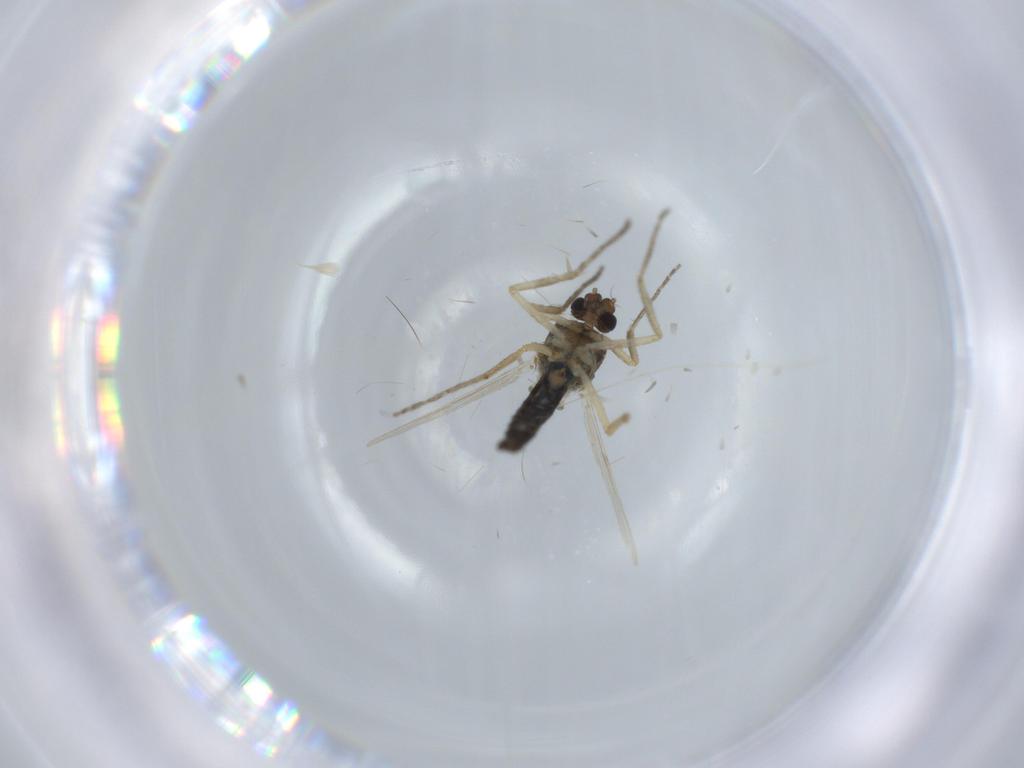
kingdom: Animalia
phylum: Arthropoda
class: Insecta
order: Diptera
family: Ceratopogonidae
